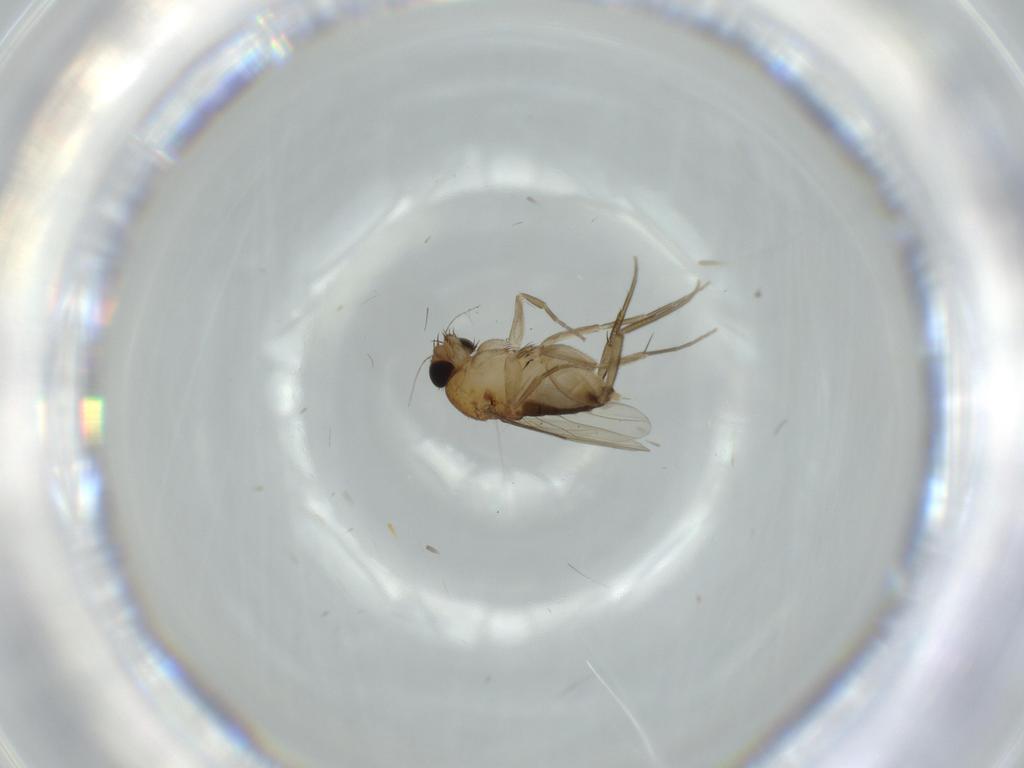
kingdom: Animalia
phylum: Arthropoda
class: Insecta
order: Diptera
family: Phoridae
